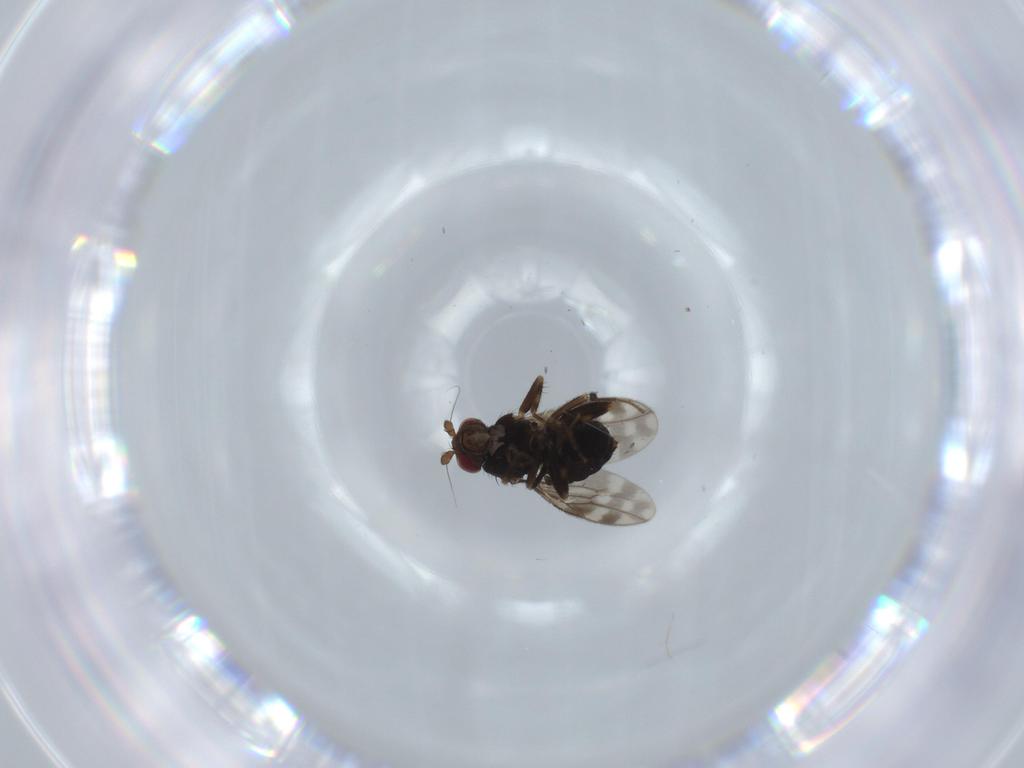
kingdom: Animalia
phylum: Arthropoda
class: Insecta
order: Diptera
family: Sphaeroceridae
